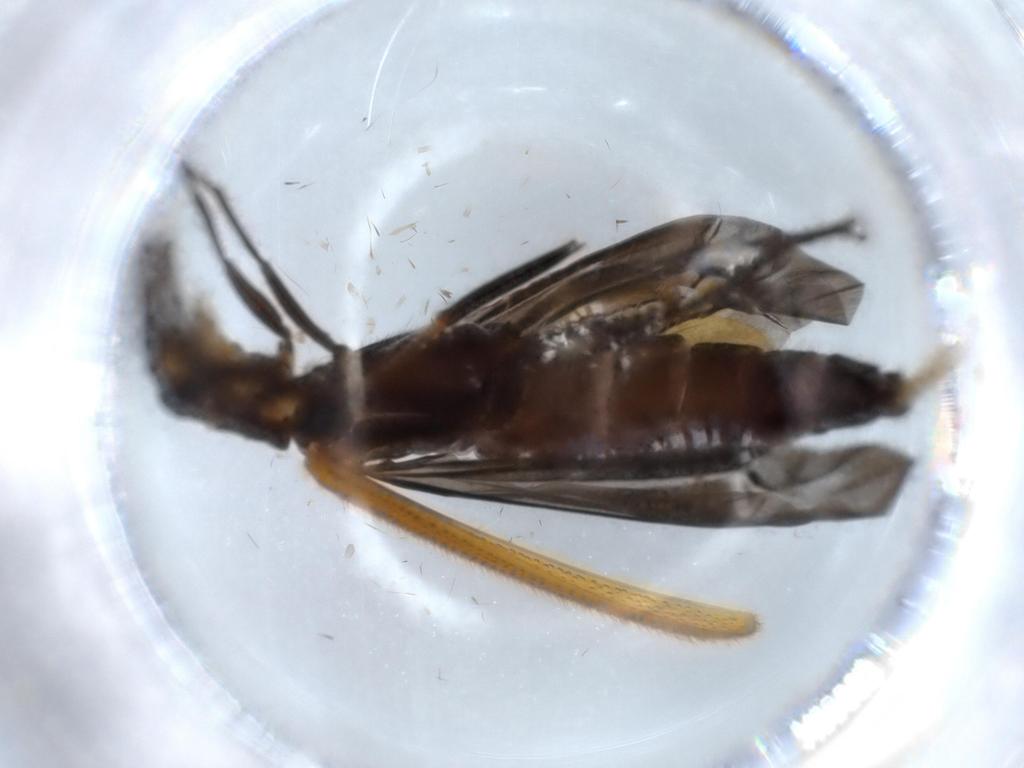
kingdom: Animalia
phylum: Arthropoda
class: Insecta
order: Coleoptera
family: Cleridae
